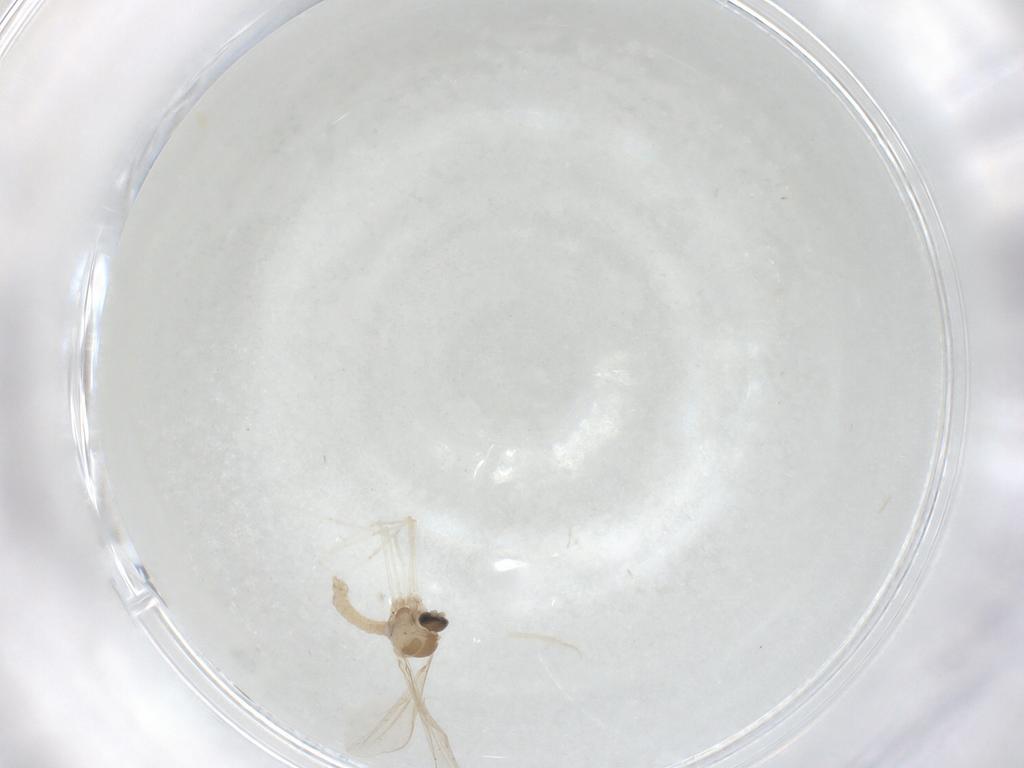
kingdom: Animalia
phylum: Arthropoda
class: Insecta
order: Diptera
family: Cecidomyiidae
